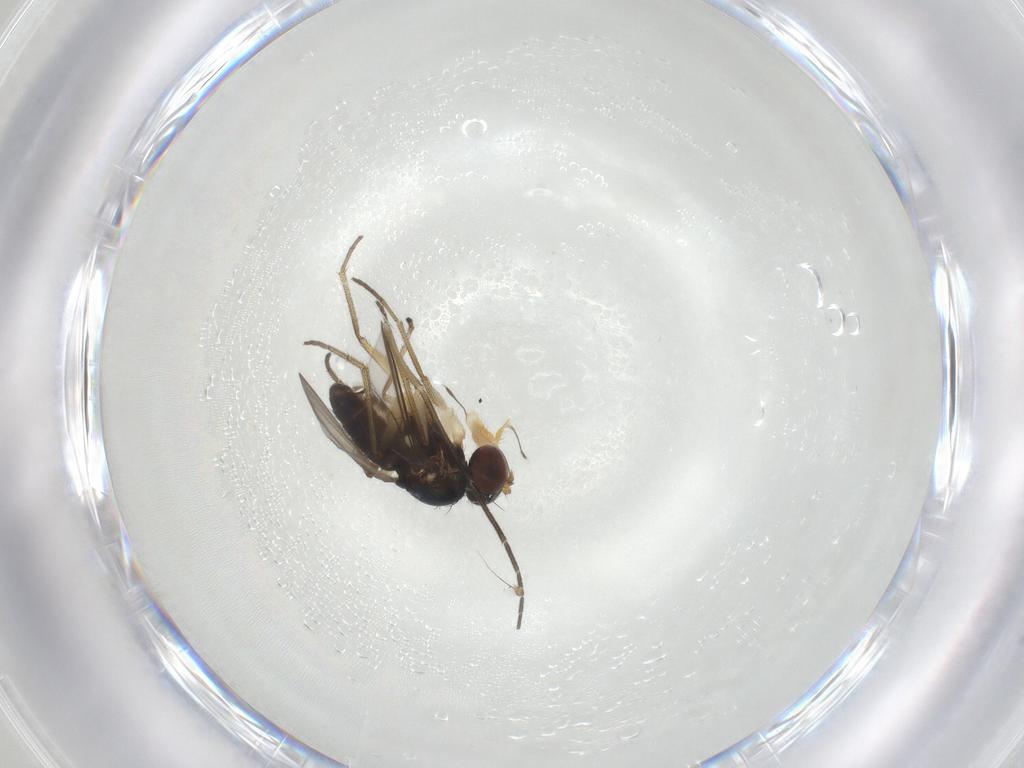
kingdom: Animalia
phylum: Arthropoda
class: Insecta
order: Diptera
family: Dolichopodidae
